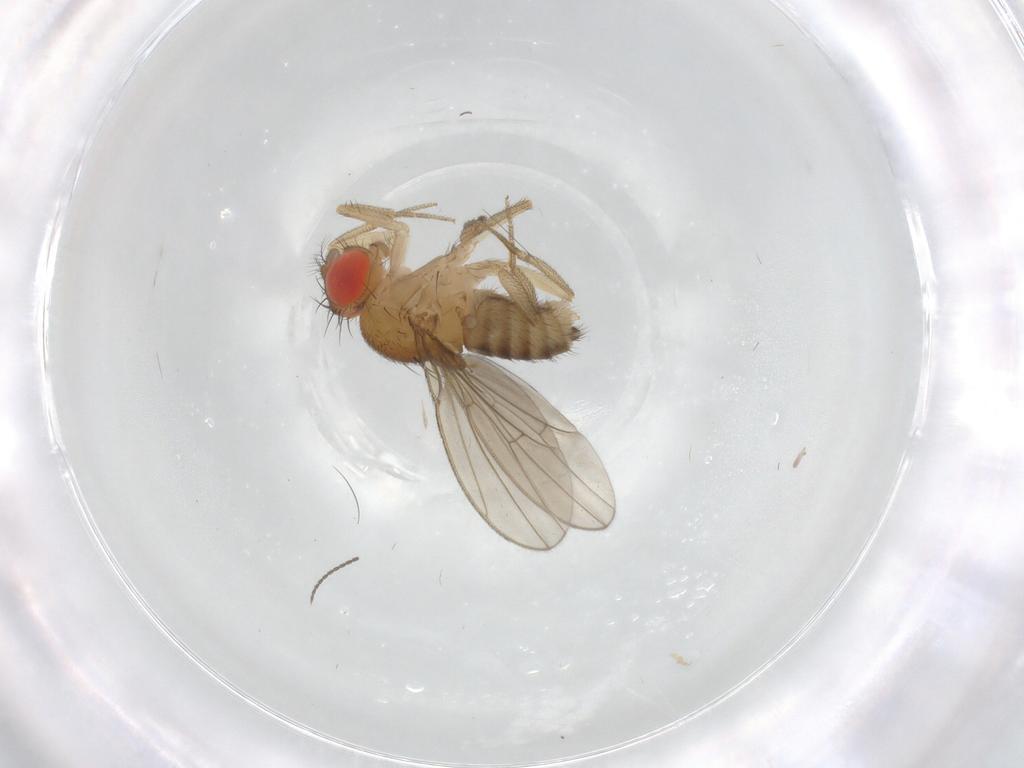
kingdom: Animalia
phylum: Arthropoda
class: Insecta
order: Diptera
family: Drosophilidae
